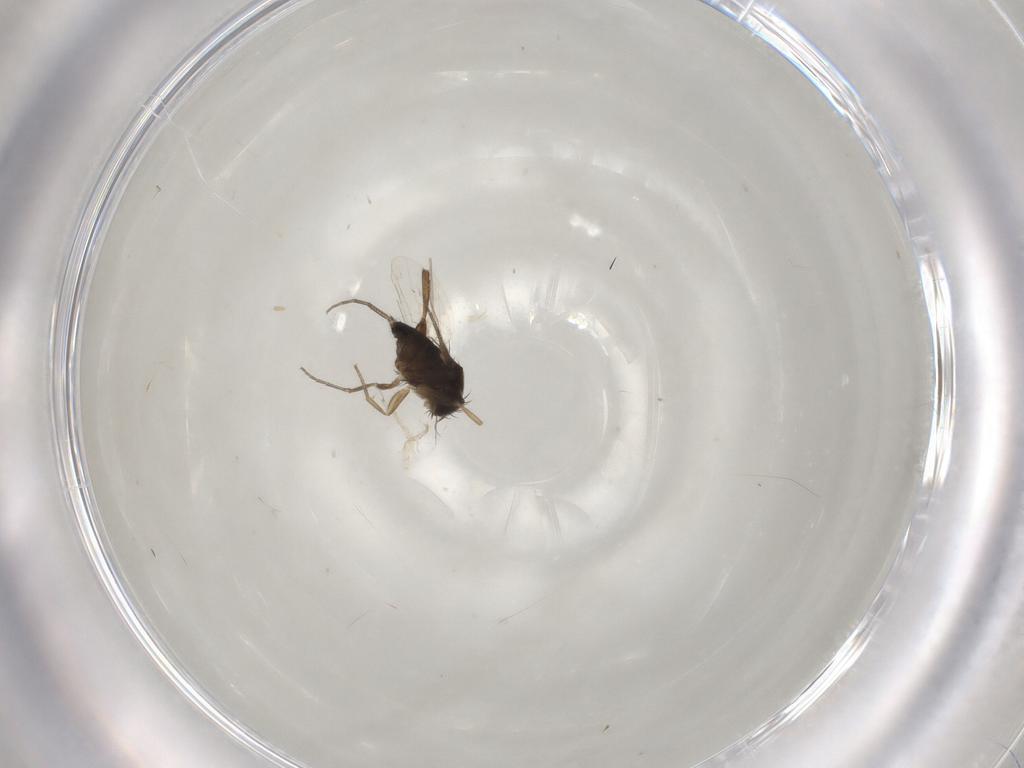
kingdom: Animalia
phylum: Arthropoda
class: Insecta
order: Diptera
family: Phoridae
